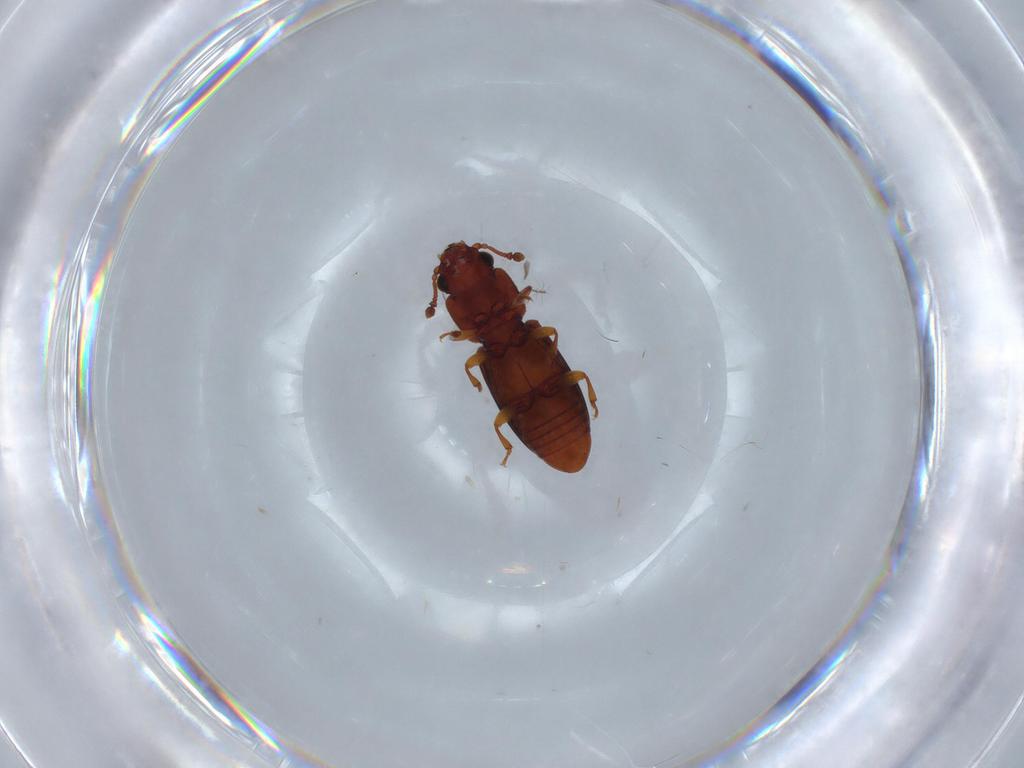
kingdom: Animalia
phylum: Arthropoda
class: Insecta
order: Coleoptera
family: Monotomidae
